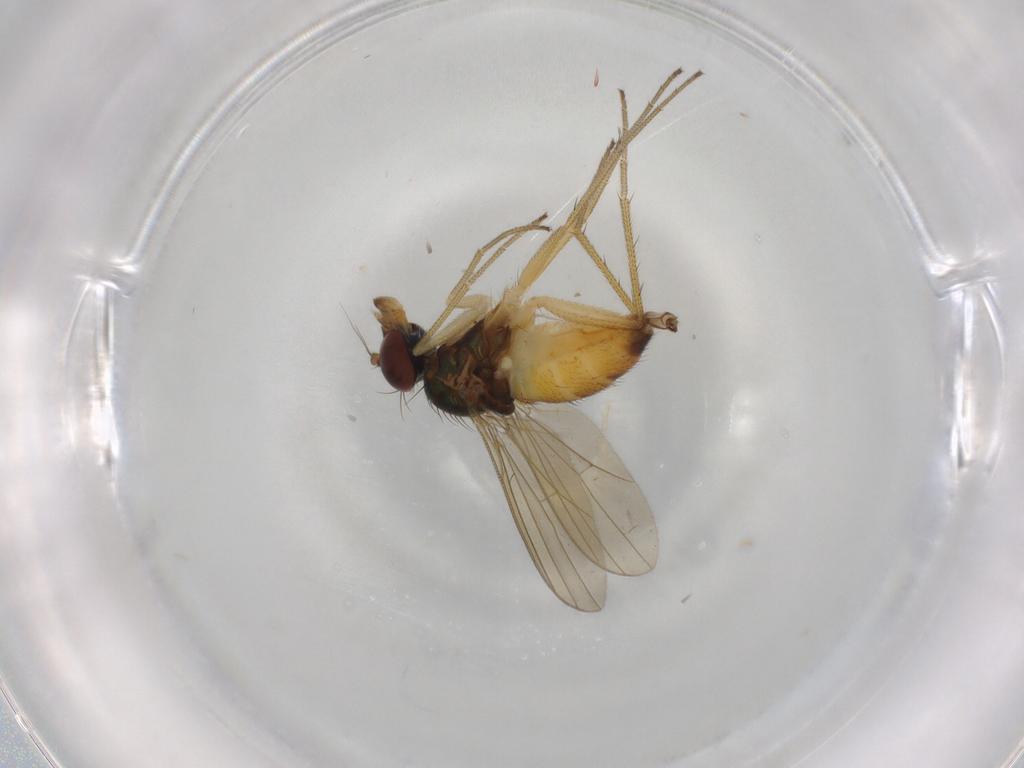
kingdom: Animalia
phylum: Arthropoda
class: Insecta
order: Diptera
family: Dolichopodidae
